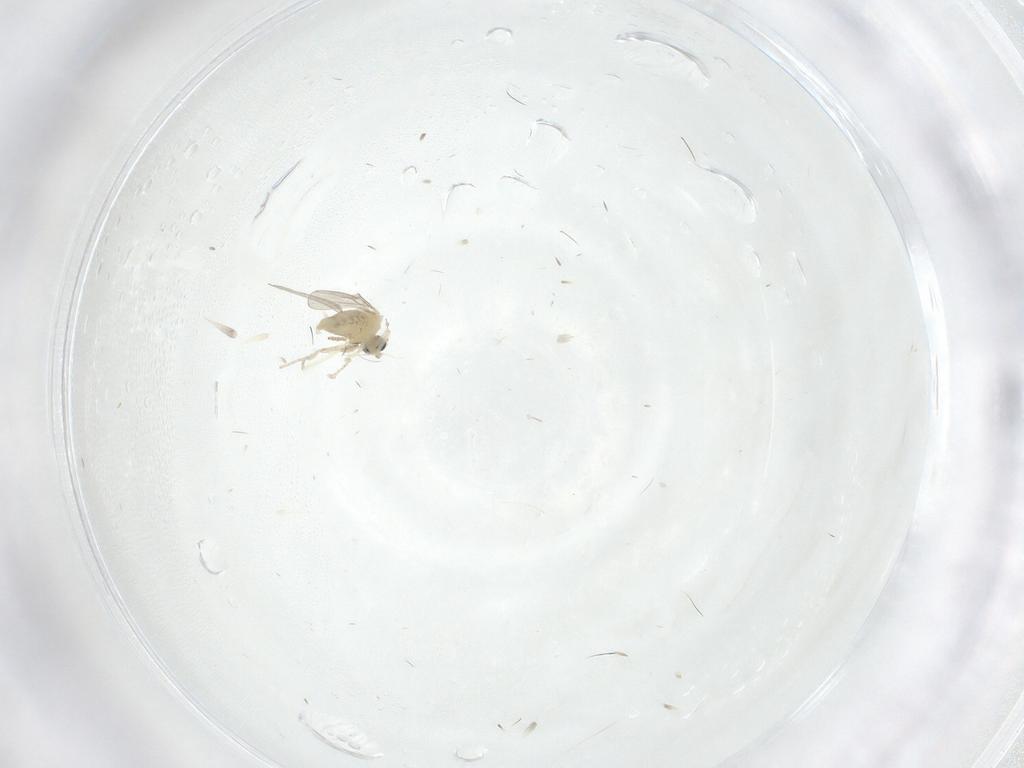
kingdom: Animalia
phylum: Arthropoda
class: Insecta
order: Diptera
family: Cecidomyiidae
